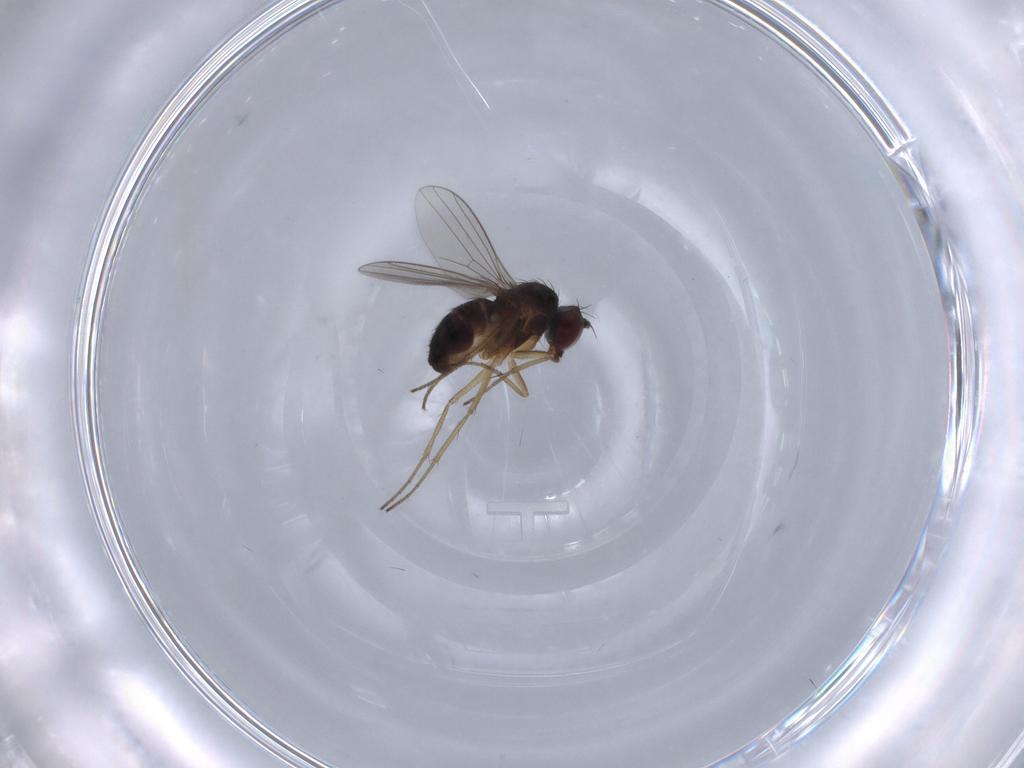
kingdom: Animalia
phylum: Arthropoda
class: Insecta
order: Diptera
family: Dolichopodidae
